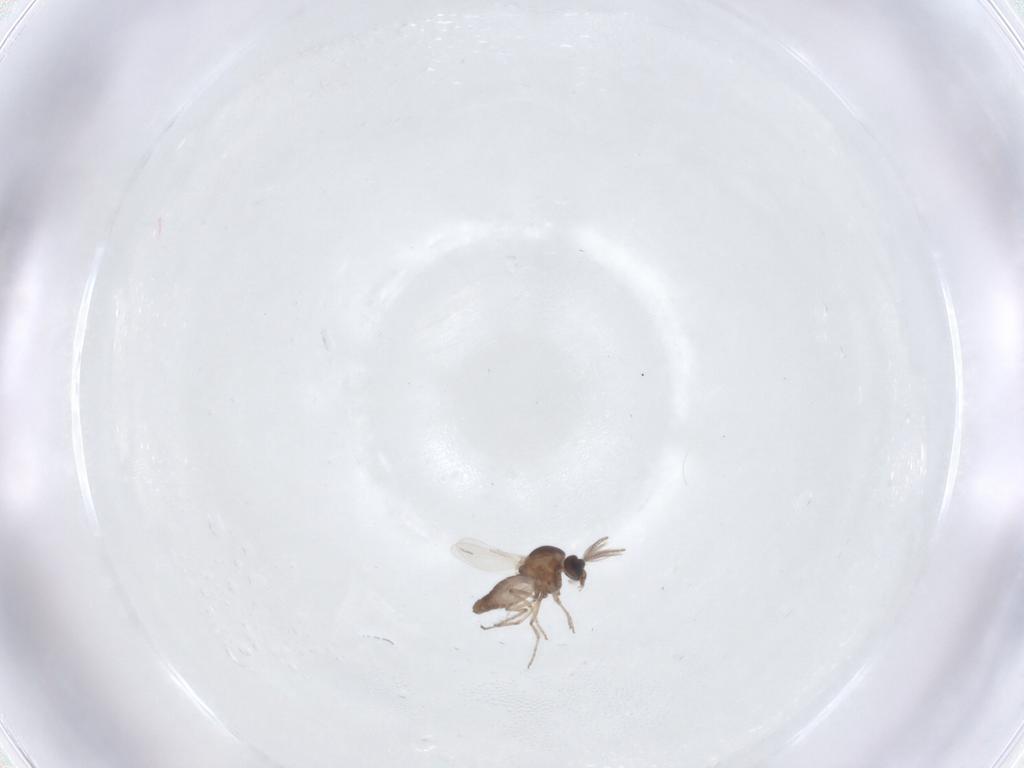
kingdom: Animalia
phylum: Arthropoda
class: Insecta
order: Diptera
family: Ceratopogonidae
